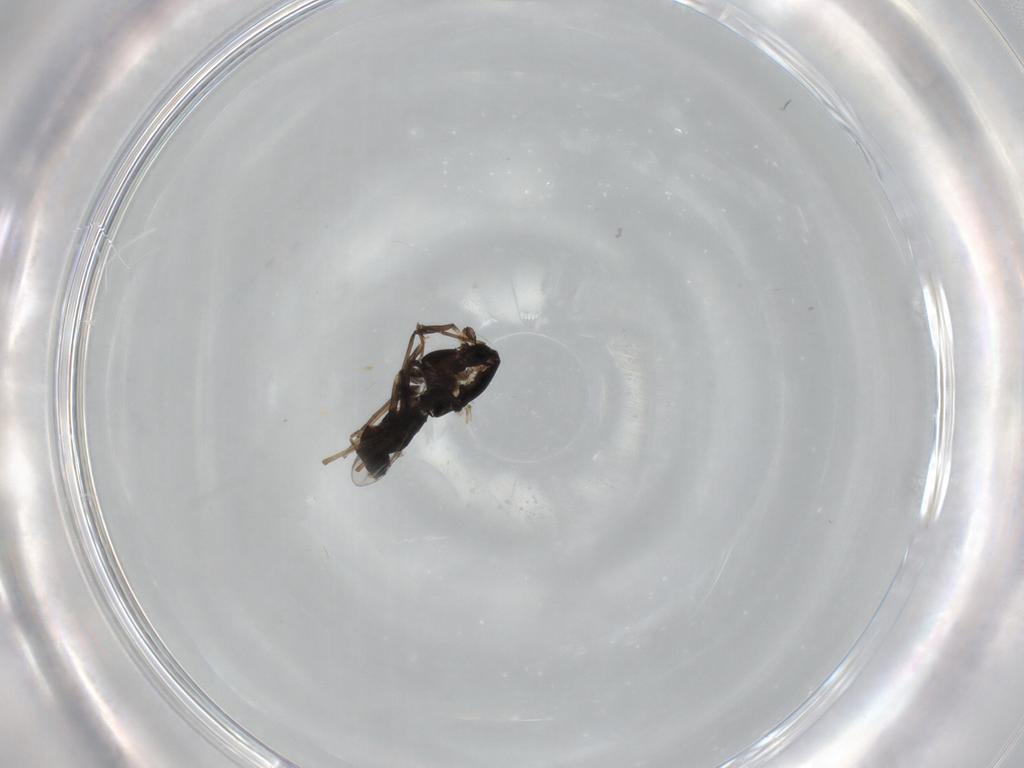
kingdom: Animalia
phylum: Arthropoda
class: Insecta
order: Diptera
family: Chironomidae
